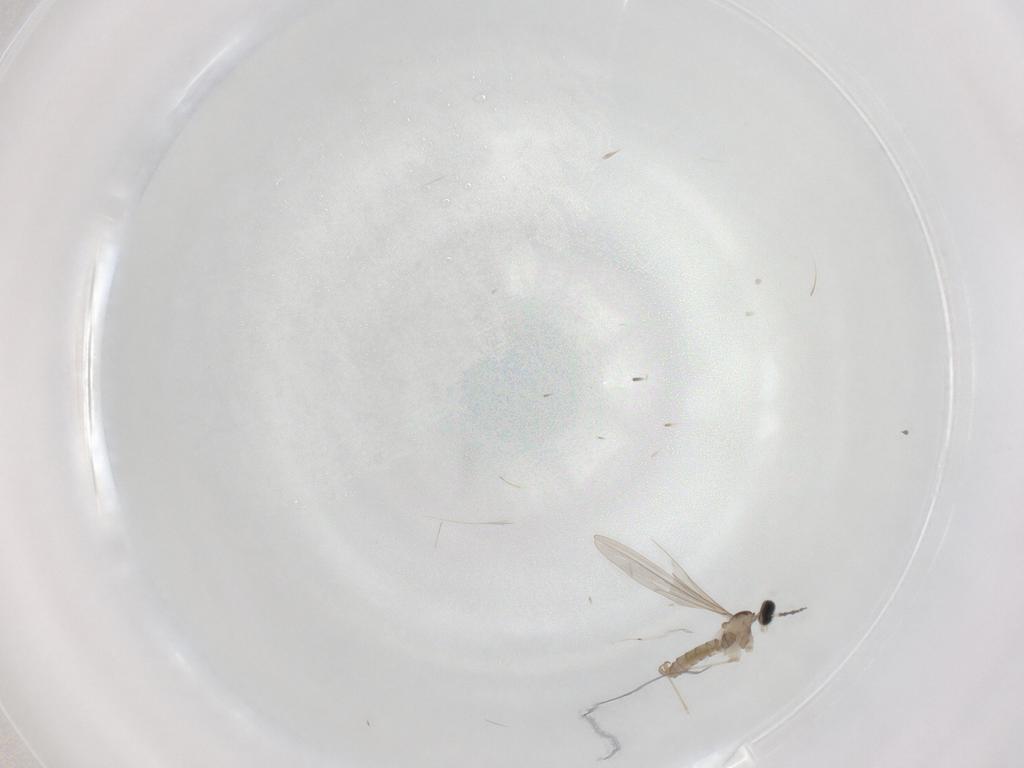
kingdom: Animalia
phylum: Arthropoda
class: Insecta
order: Diptera
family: Cecidomyiidae
